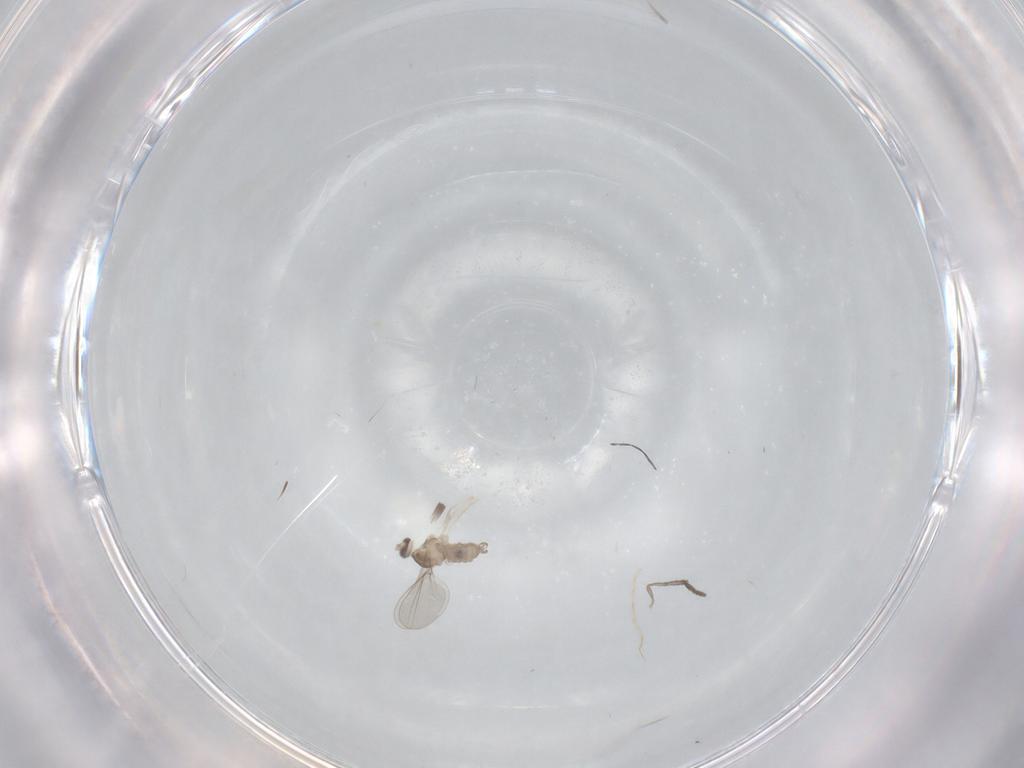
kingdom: Animalia
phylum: Arthropoda
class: Insecta
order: Diptera
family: Cecidomyiidae
